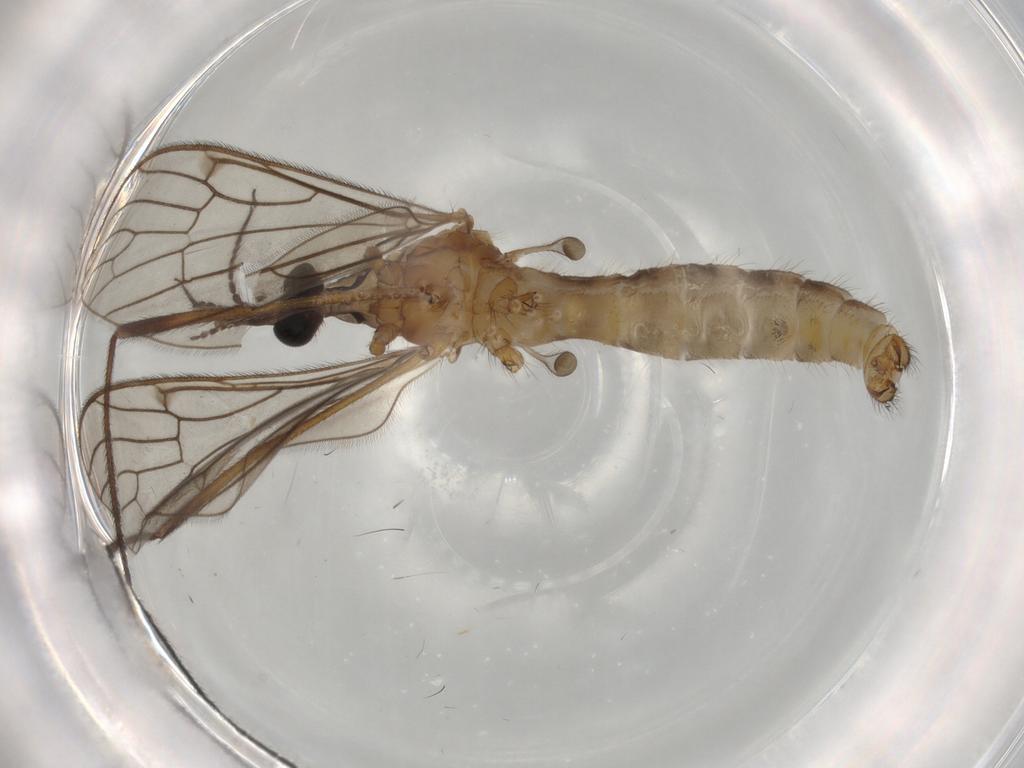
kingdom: Animalia
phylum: Arthropoda
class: Insecta
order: Diptera
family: Limoniidae
